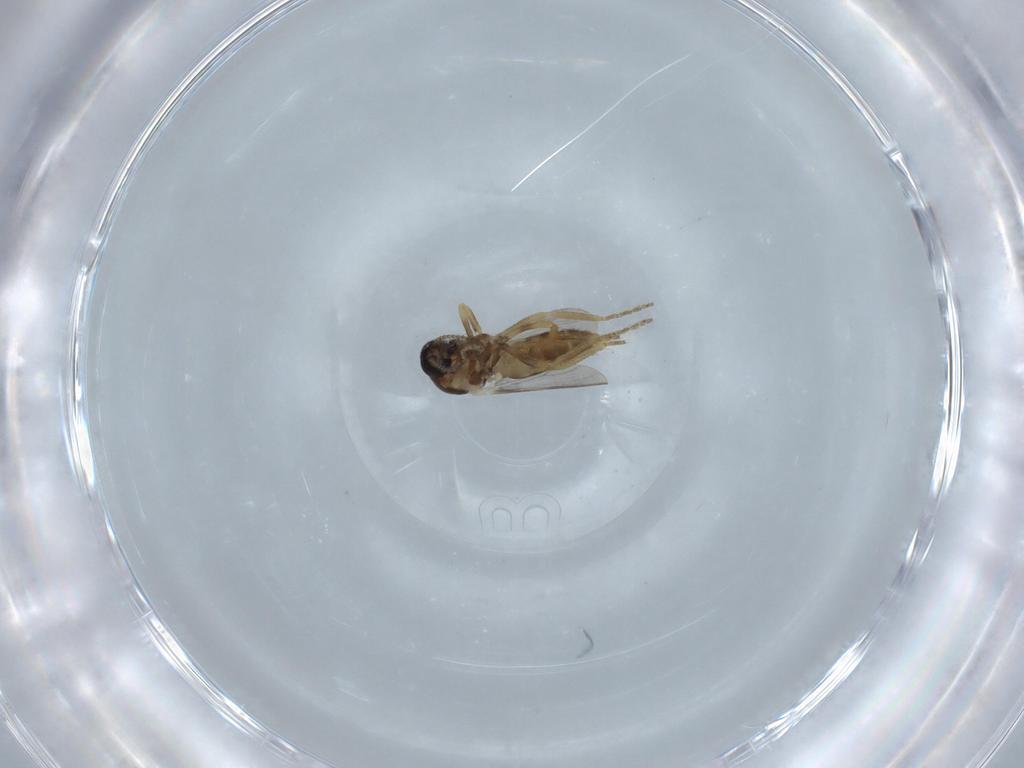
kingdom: Animalia
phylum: Arthropoda
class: Insecta
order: Diptera
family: Ceratopogonidae
